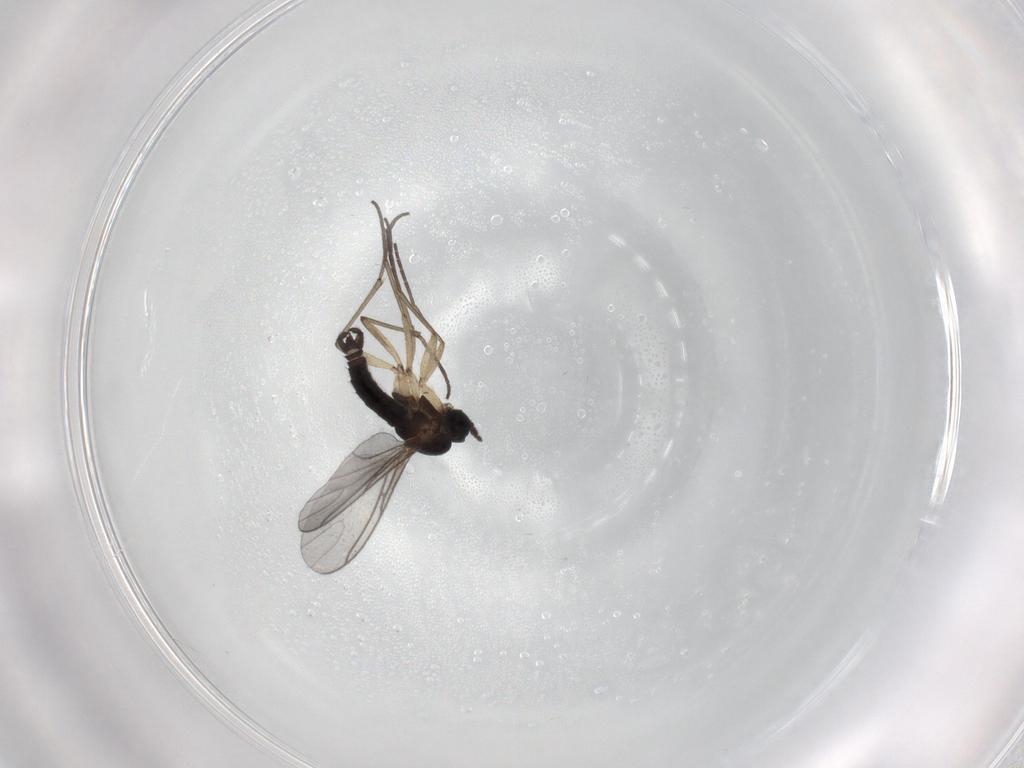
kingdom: Animalia
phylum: Arthropoda
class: Insecta
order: Diptera
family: Sciaridae
